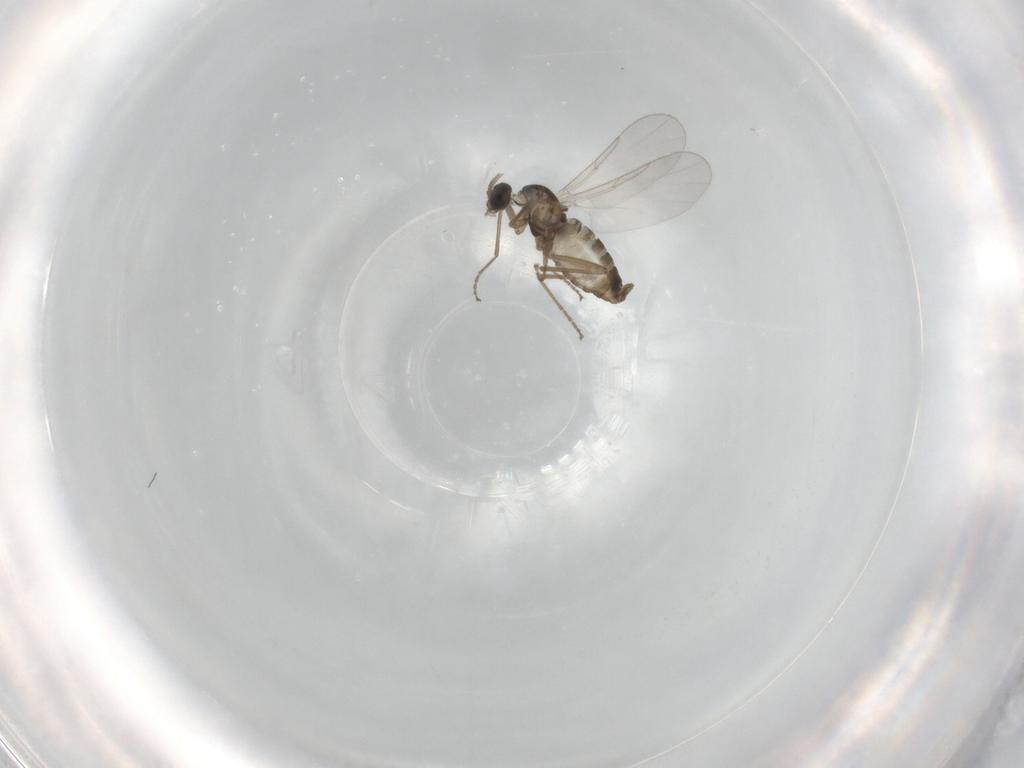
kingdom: Animalia
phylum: Arthropoda
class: Insecta
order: Diptera
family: Cecidomyiidae
